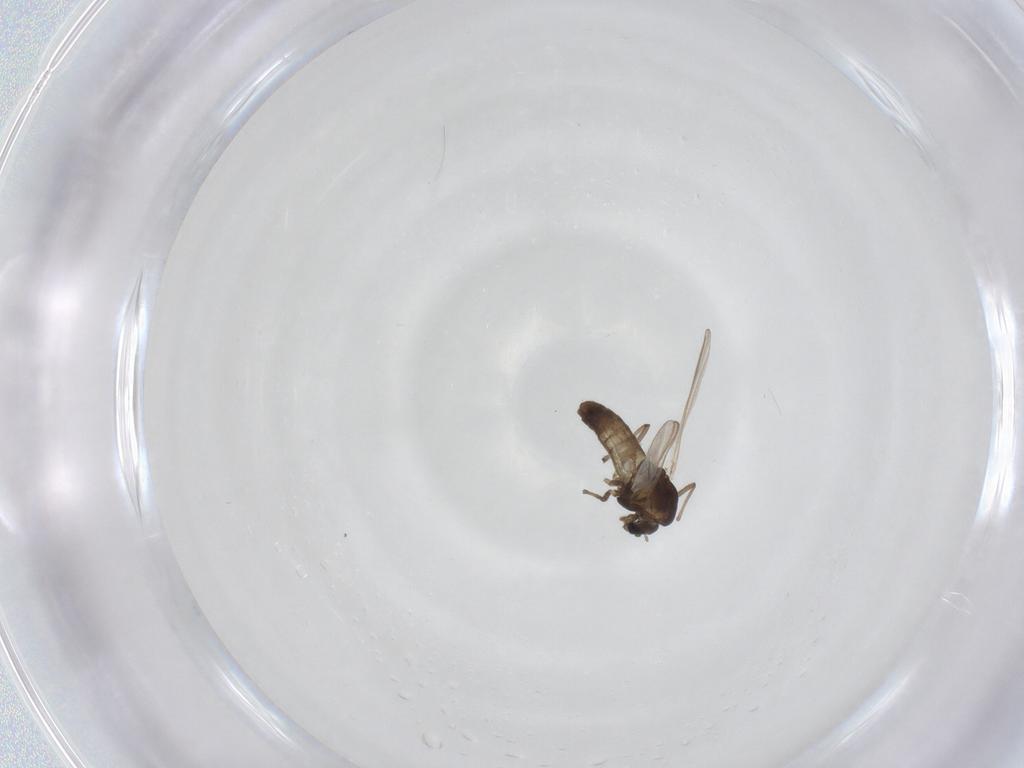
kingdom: Animalia
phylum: Arthropoda
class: Insecta
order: Diptera
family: Chironomidae
